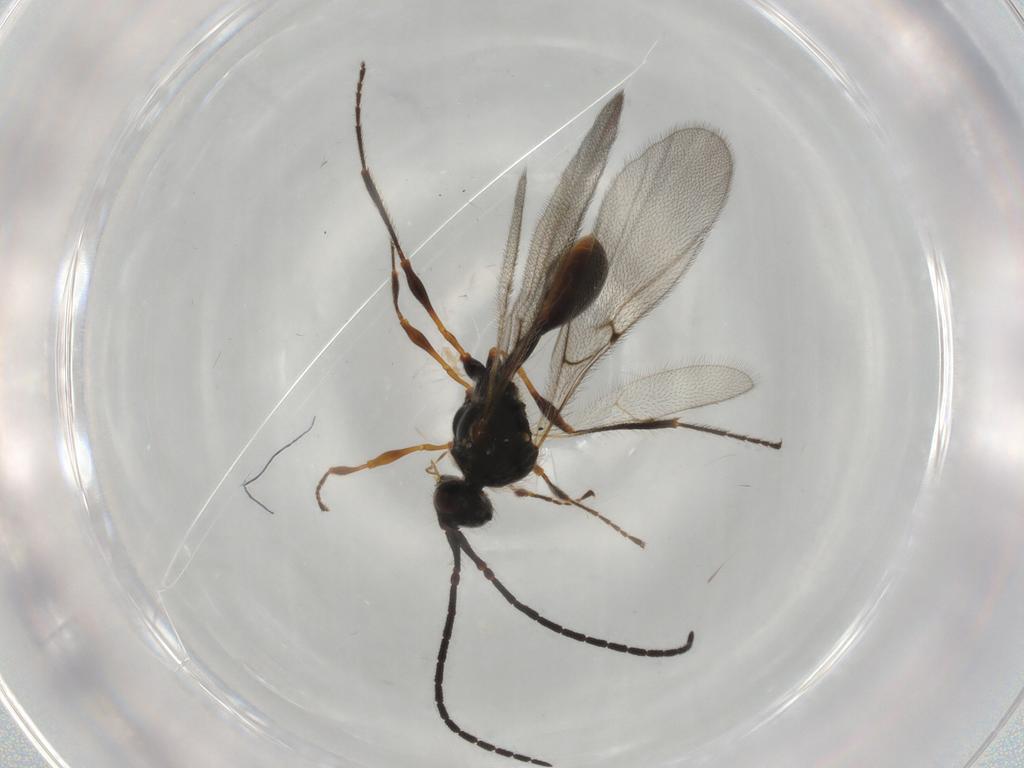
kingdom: Animalia
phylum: Arthropoda
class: Insecta
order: Hymenoptera
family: Diapriidae
